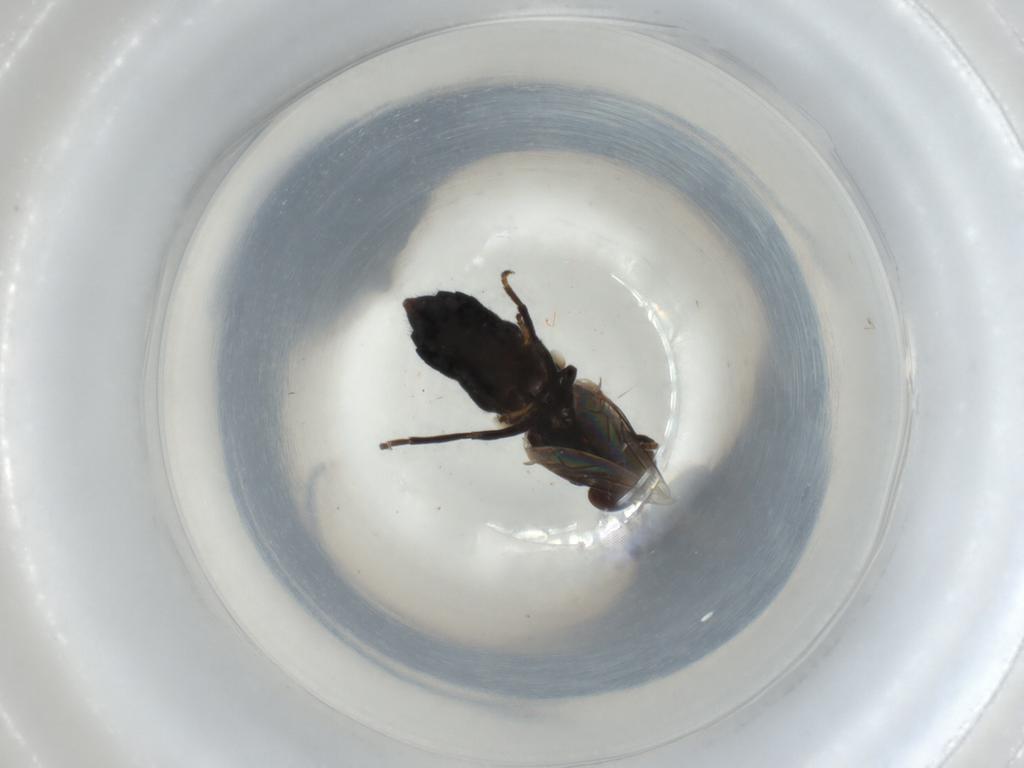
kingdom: Animalia
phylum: Arthropoda
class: Insecta
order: Diptera
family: Scenopinidae
